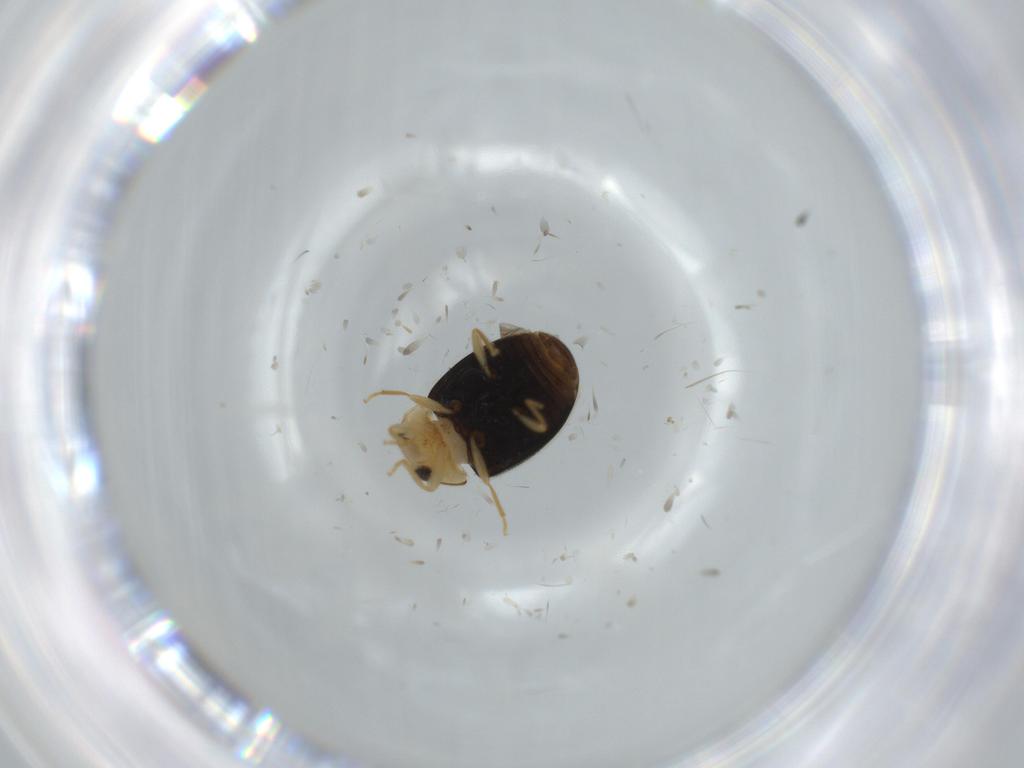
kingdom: Animalia
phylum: Arthropoda
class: Insecta
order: Coleoptera
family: Coccinellidae
